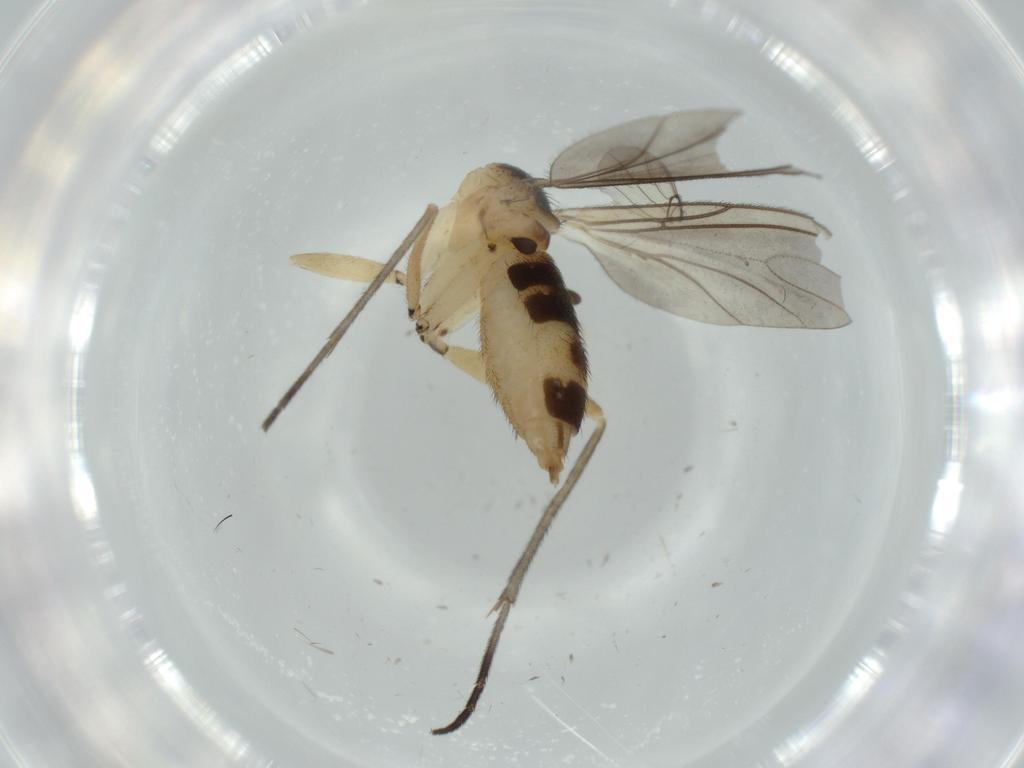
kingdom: Animalia
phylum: Arthropoda
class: Insecta
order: Diptera
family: Sciaridae
